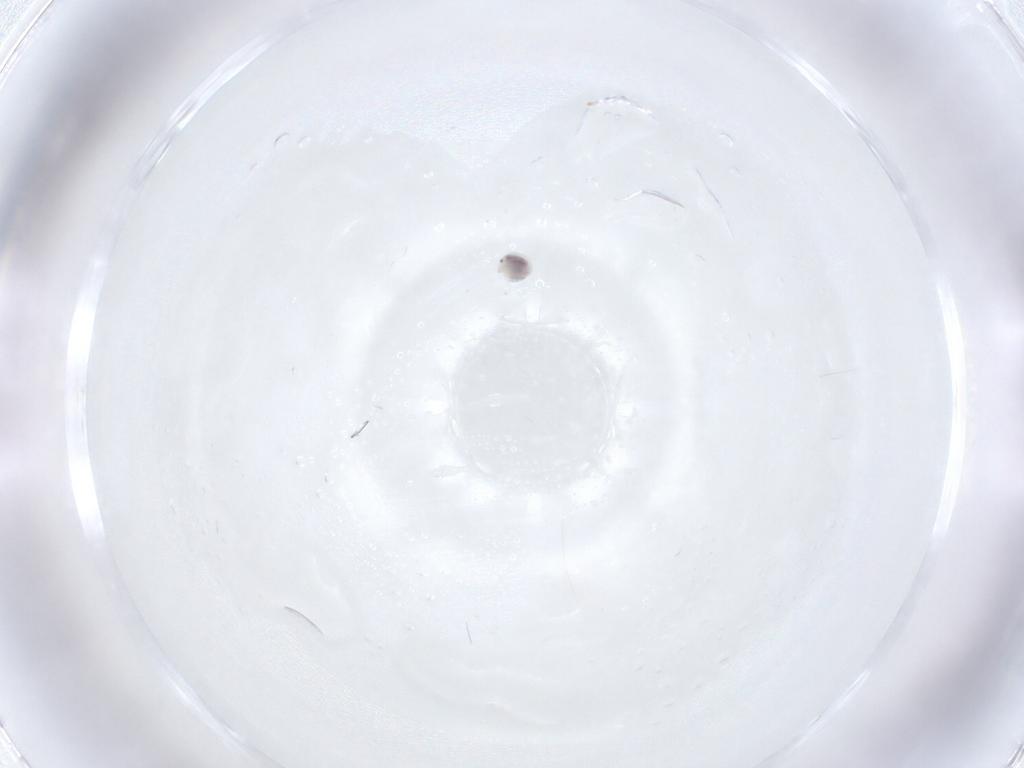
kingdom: Animalia
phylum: Arthropoda
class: Arachnida
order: Trombidiformes
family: Unionicolidae
